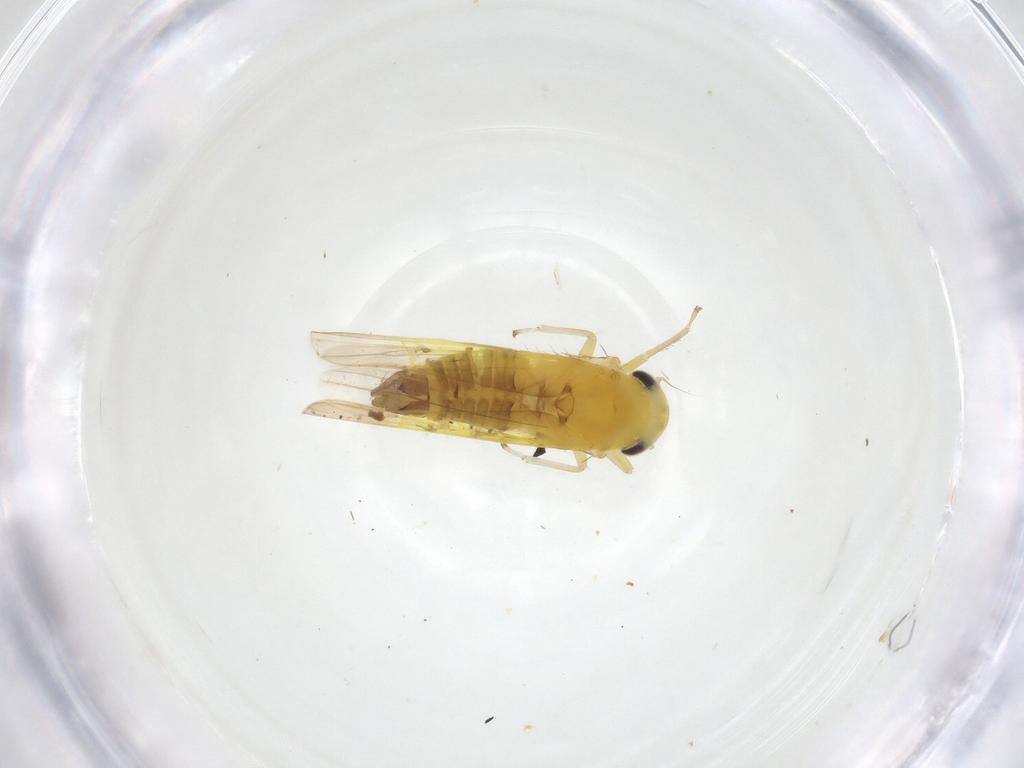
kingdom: Animalia
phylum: Arthropoda
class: Insecta
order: Hemiptera
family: Cicadellidae
